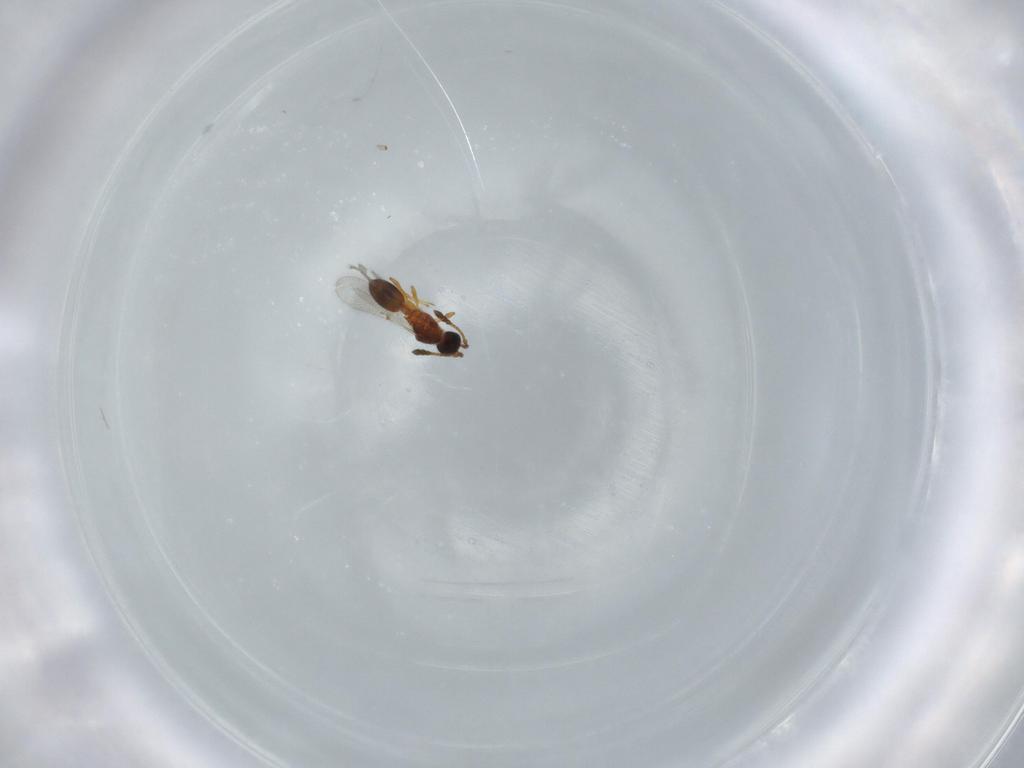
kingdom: Animalia
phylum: Arthropoda
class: Insecta
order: Hymenoptera
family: Diapriidae
